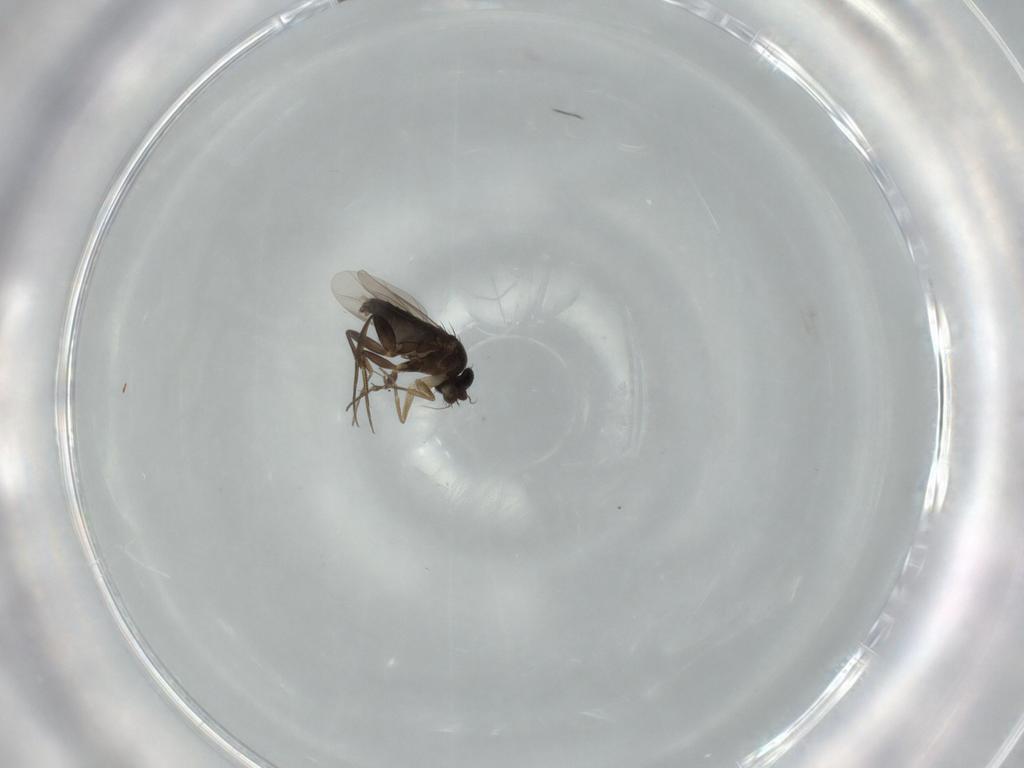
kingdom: Animalia
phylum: Arthropoda
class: Insecta
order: Diptera
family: Phoridae
